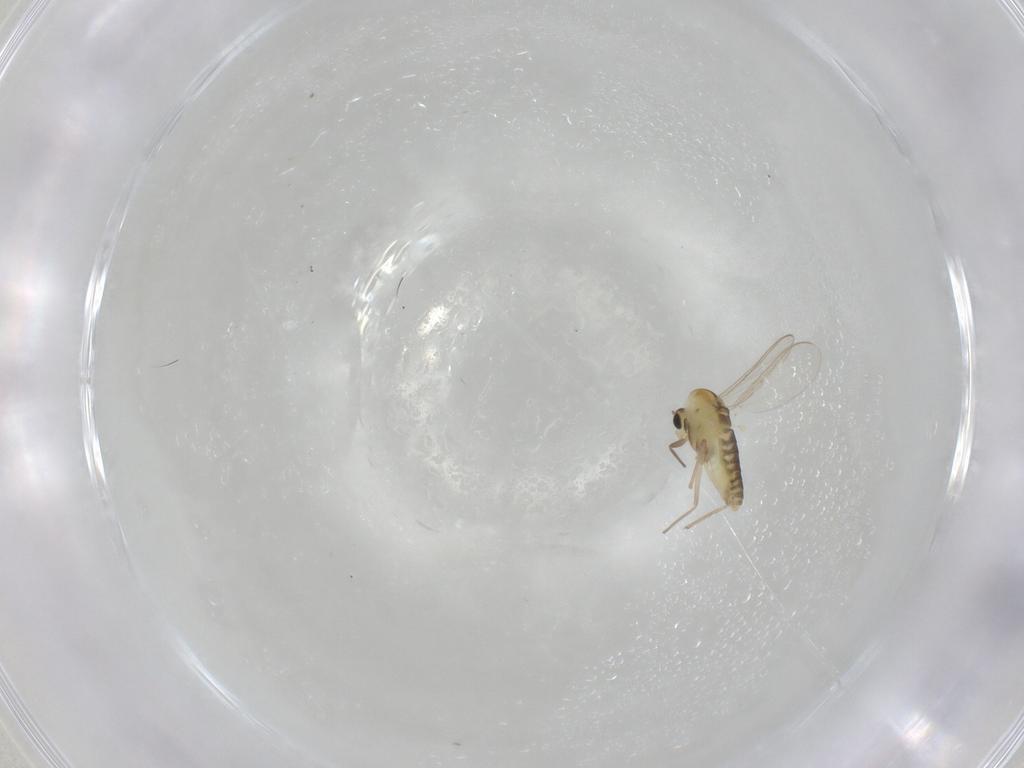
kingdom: Animalia
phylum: Arthropoda
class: Insecta
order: Diptera
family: Chironomidae
